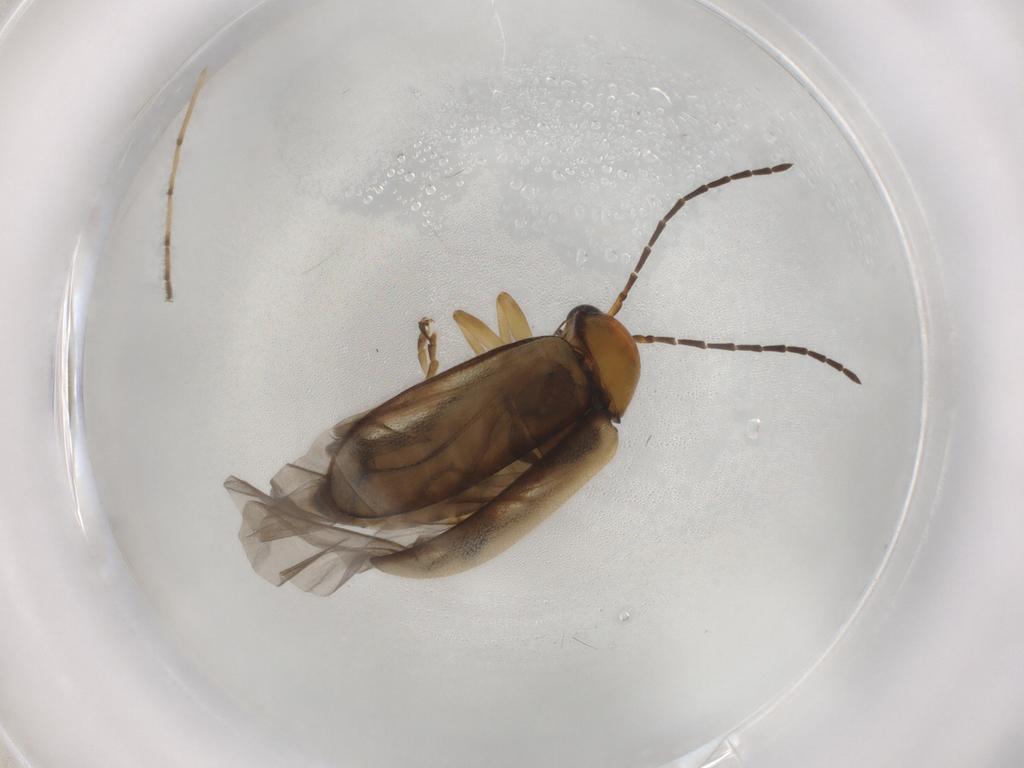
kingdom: Animalia
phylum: Arthropoda
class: Insecta
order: Coleoptera
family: Chrysomelidae
